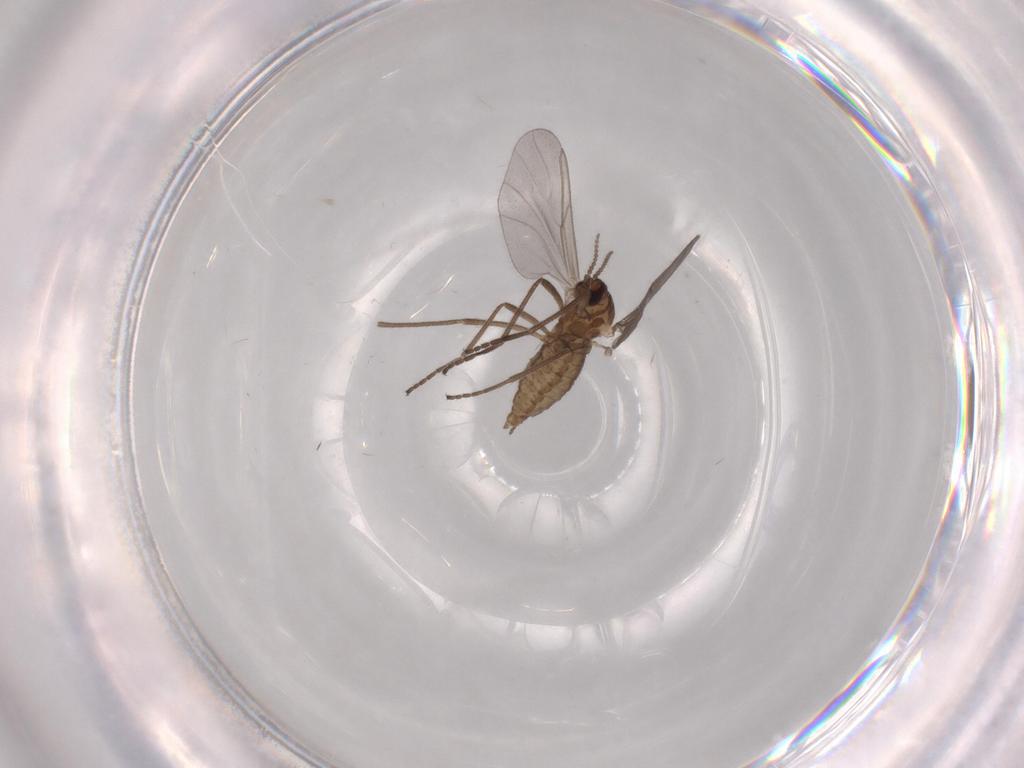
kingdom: Animalia
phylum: Arthropoda
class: Insecta
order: Diptera
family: Cecidomyiidae
